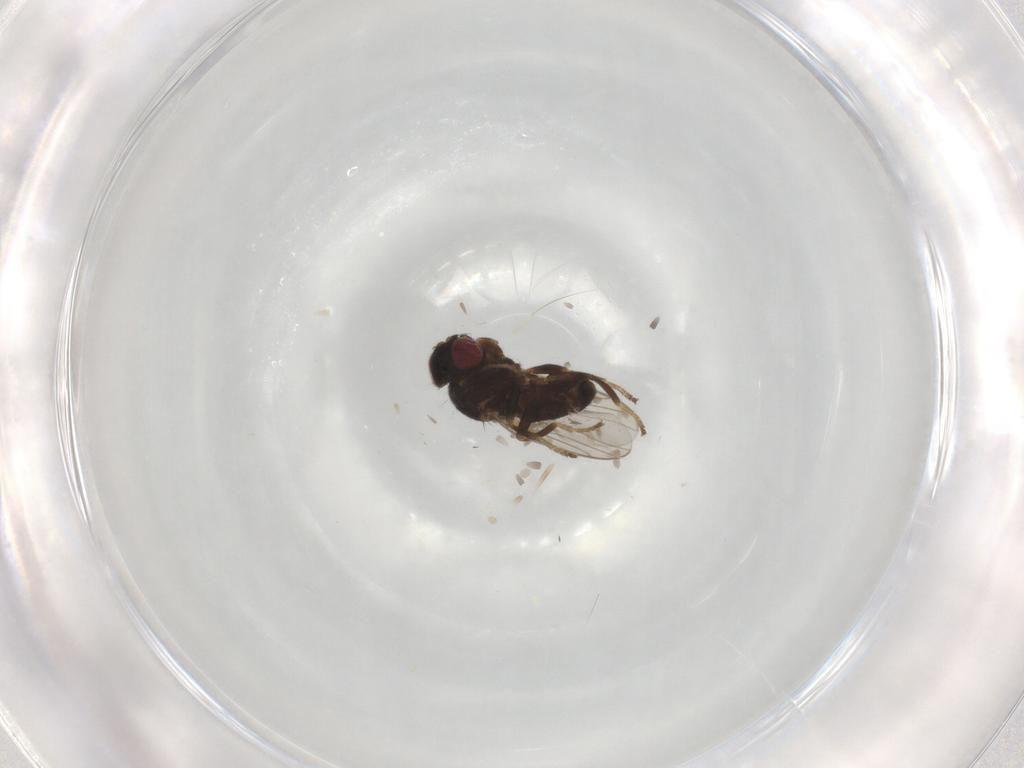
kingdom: Animalia
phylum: Arthropoda
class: Insecta
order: Diptera
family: Chloropidae
